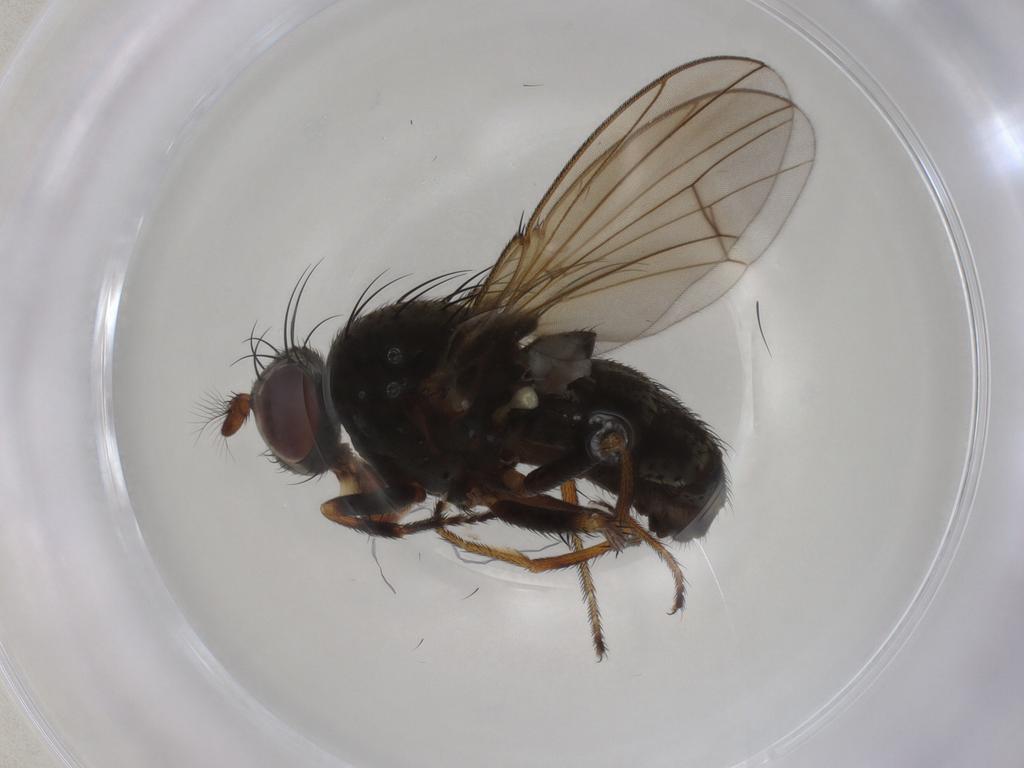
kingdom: Animalia
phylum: Arthropoda
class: Insecta
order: Diptera
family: Ephydridae
